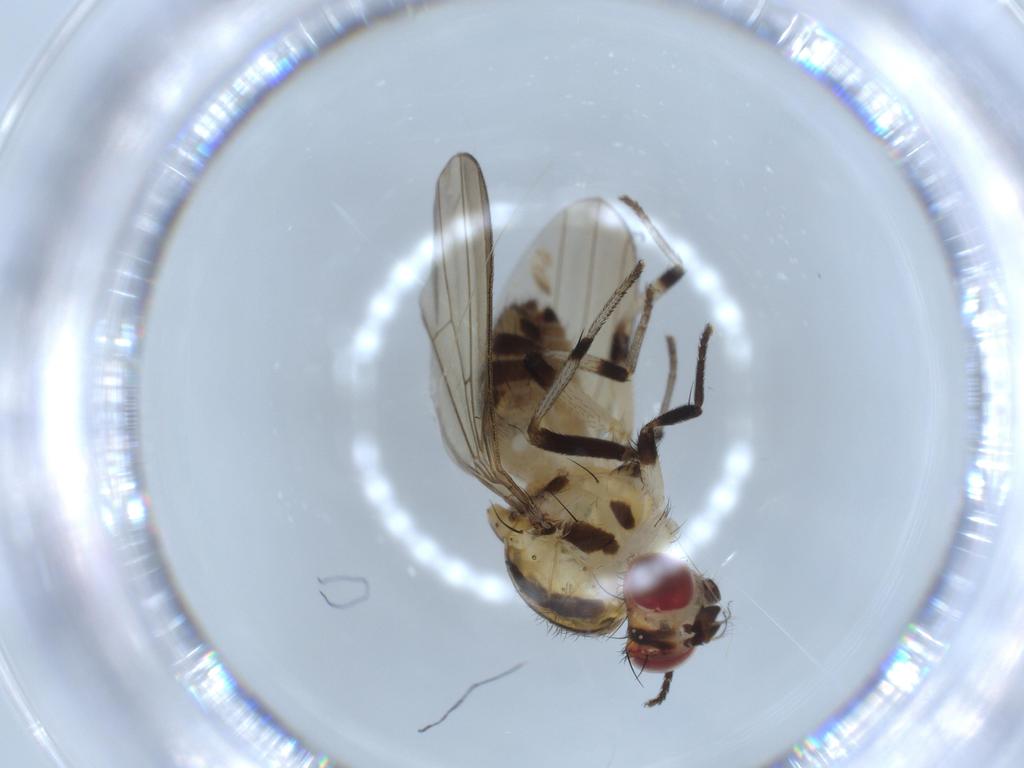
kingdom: Animalia
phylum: Arthropoda
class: Insecta
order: Diptera
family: Lauxaniidae
